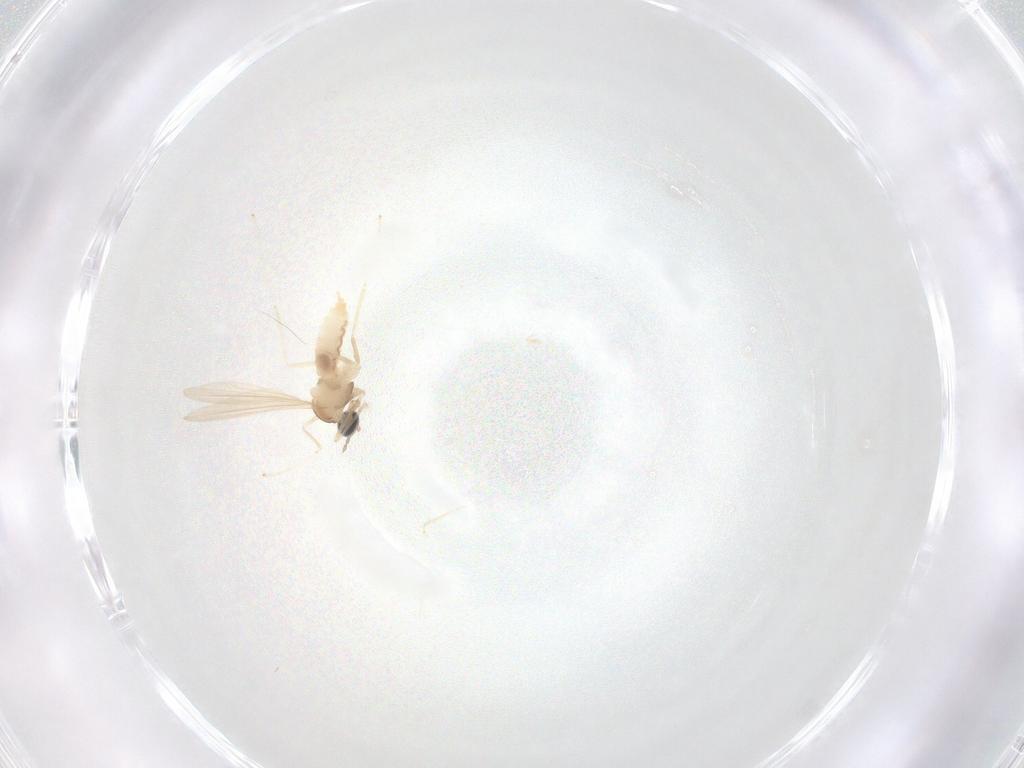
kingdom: Animalia
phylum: Arthropoda
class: Insecta
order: Diptera
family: Cecidomyiidae
